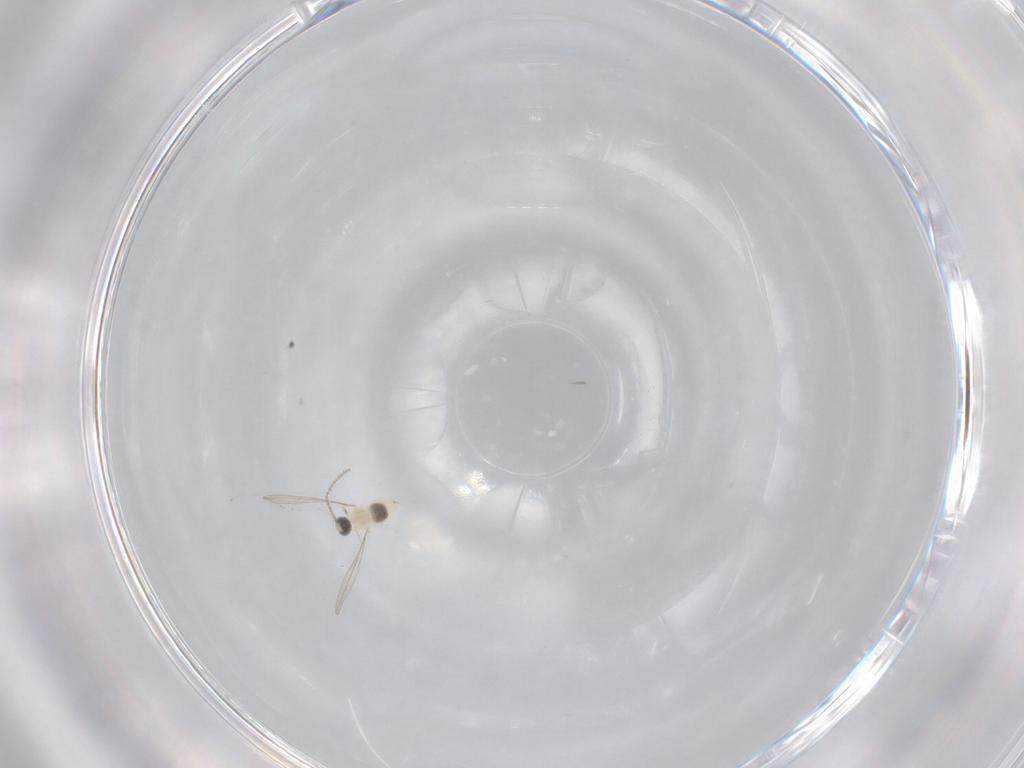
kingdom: Animalia
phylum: Arthropoda
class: Insecta
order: Diptera
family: Cecidomyiidae
